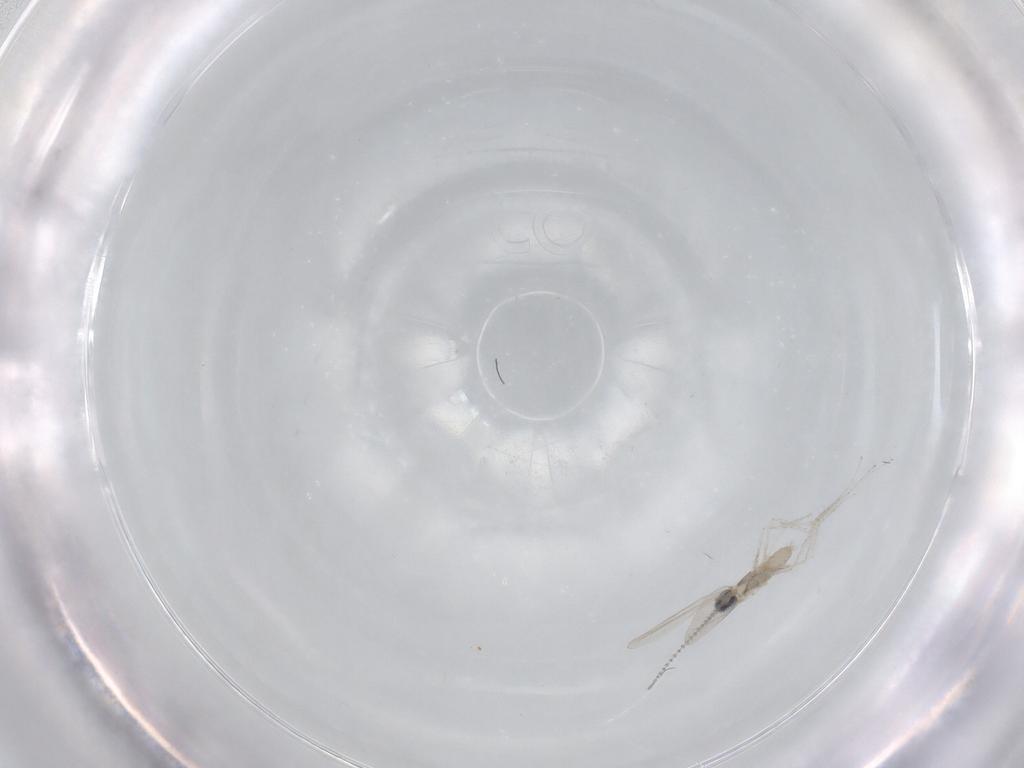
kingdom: Animalia
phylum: Arthropoda
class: Insecta
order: Diptera
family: Cecidomyiidae
